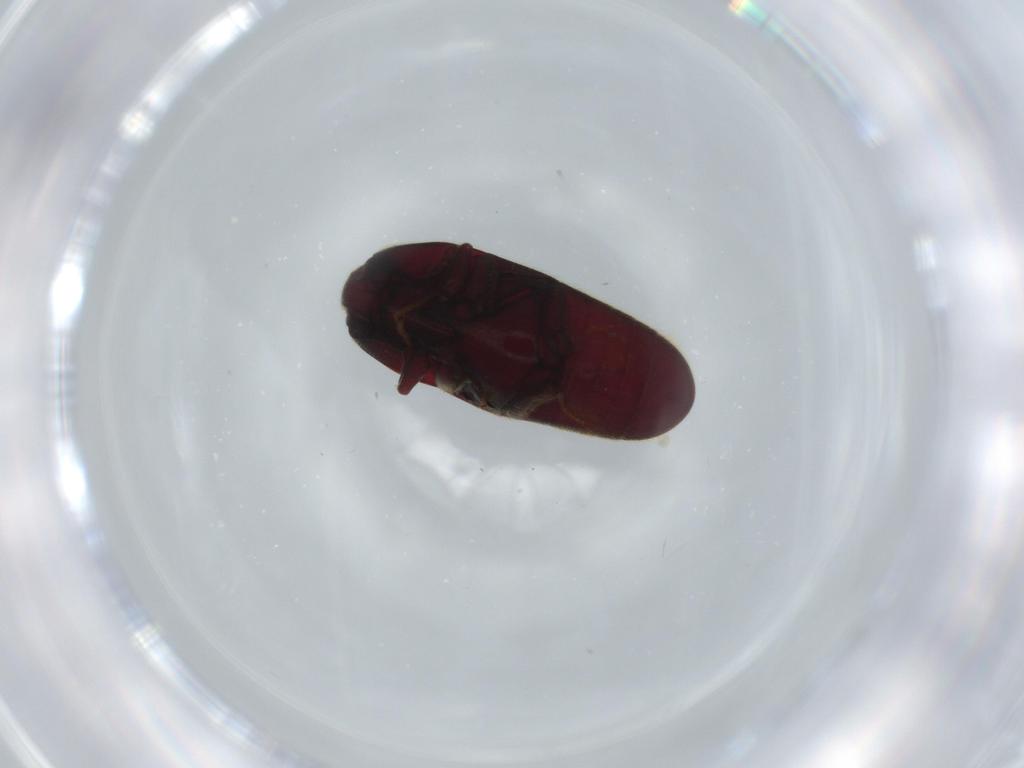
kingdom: Animalia
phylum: Arthropoda
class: Insecta
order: Coleoptera
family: Throscidae
